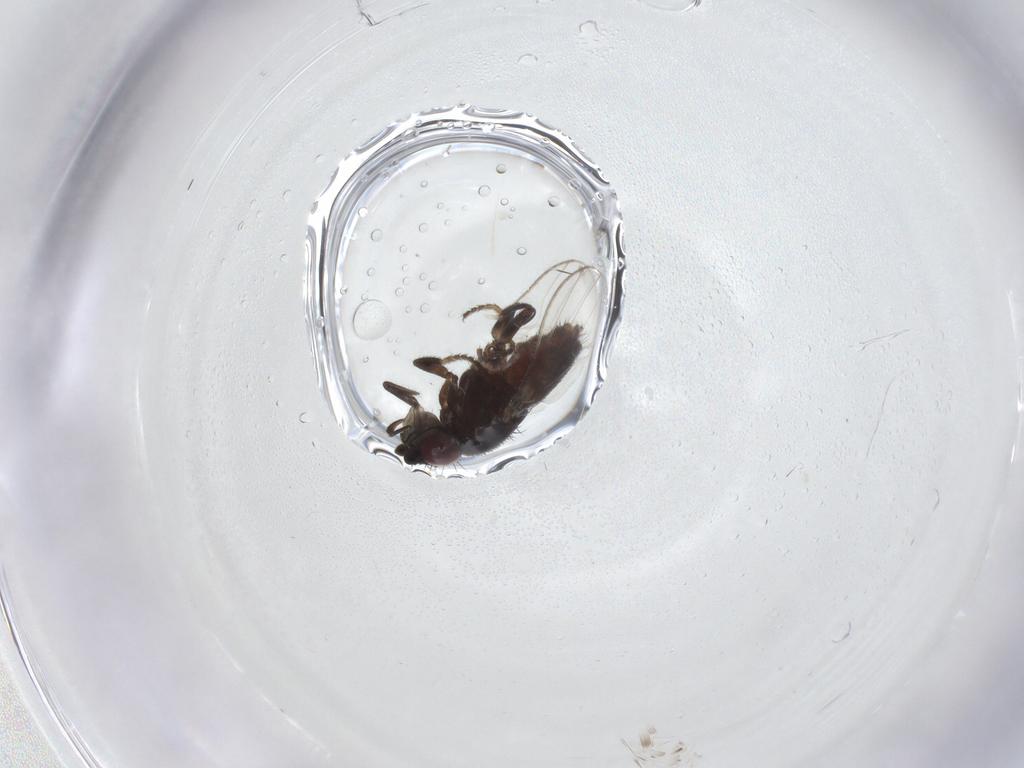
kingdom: Animalia
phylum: Arthropoda
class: Insecta
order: Diptera
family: Milichiidae
